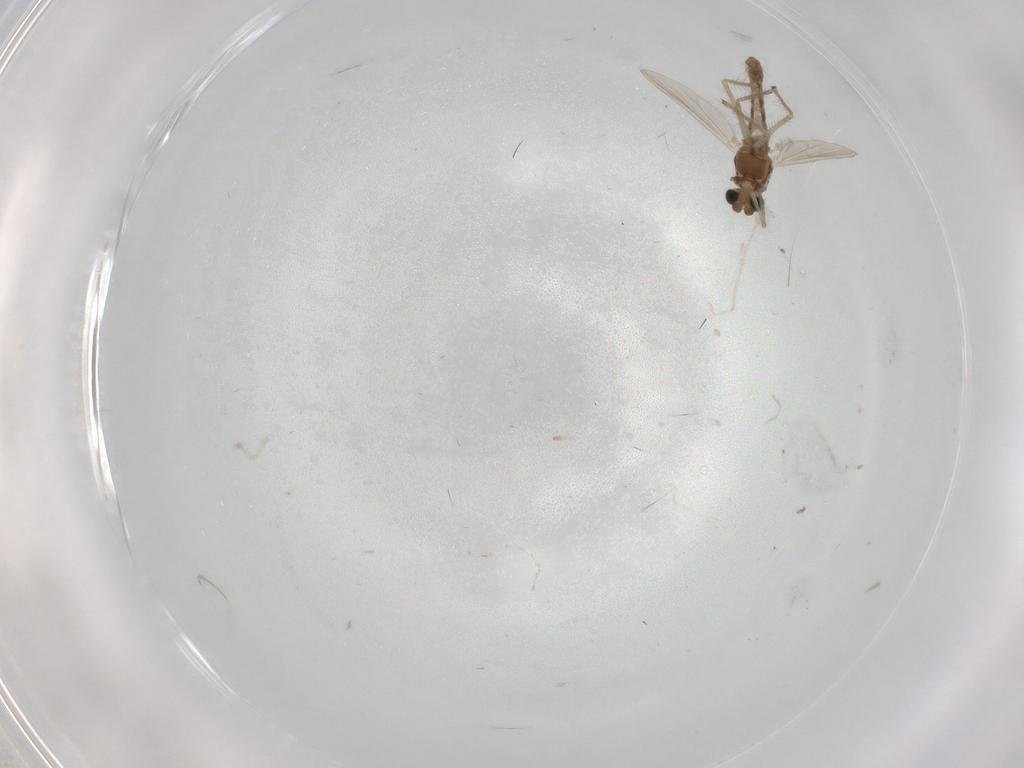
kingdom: Animalia
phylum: Arthropoda
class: Insecta
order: Diptera
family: Chironomidae
